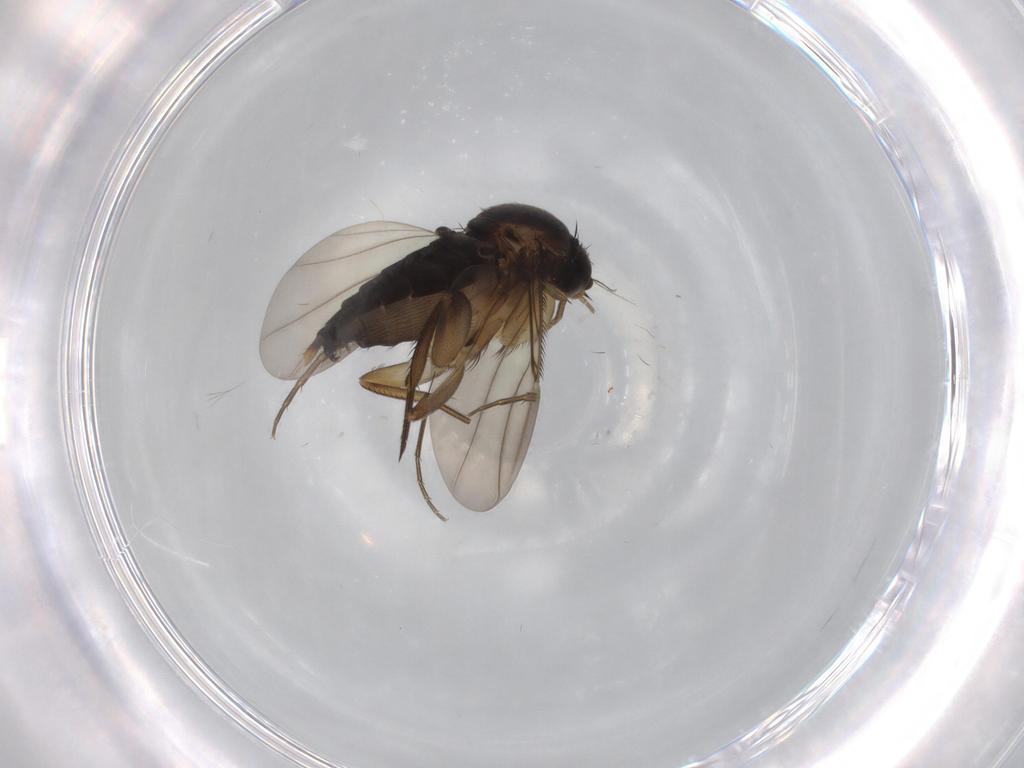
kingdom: Animalia
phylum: Arthropoda
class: Insecta
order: Diptera
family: Phoridae
